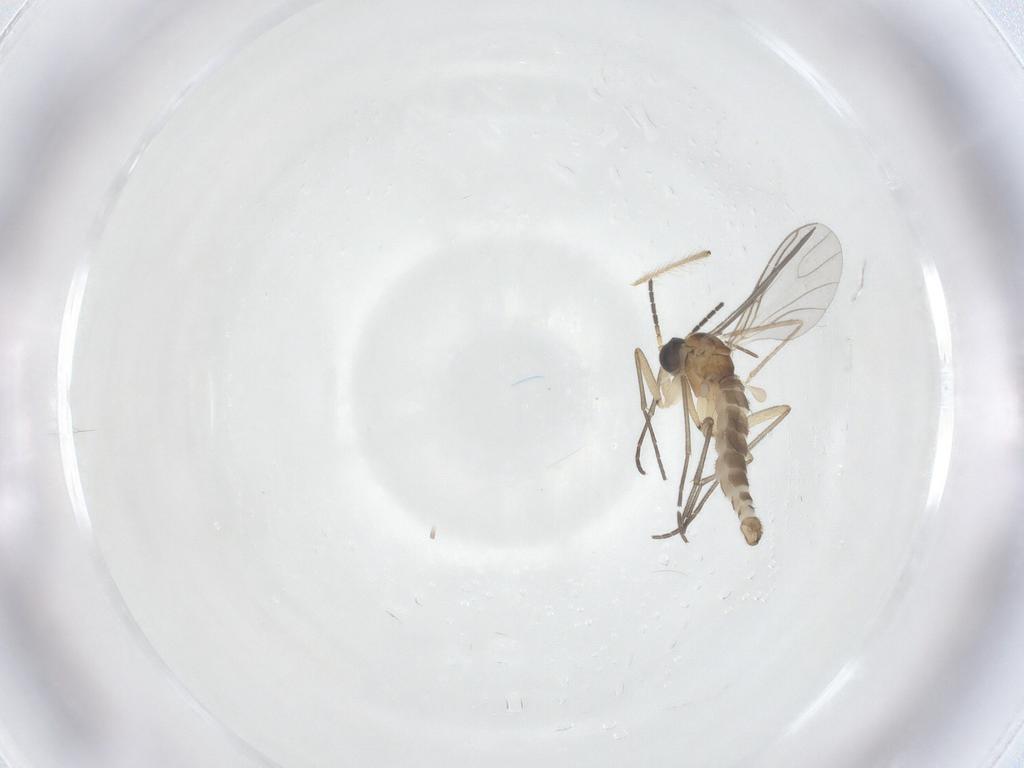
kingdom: Animalia
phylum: Arthropoda
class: Insecta
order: Diptera
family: Cecidomyiidae
